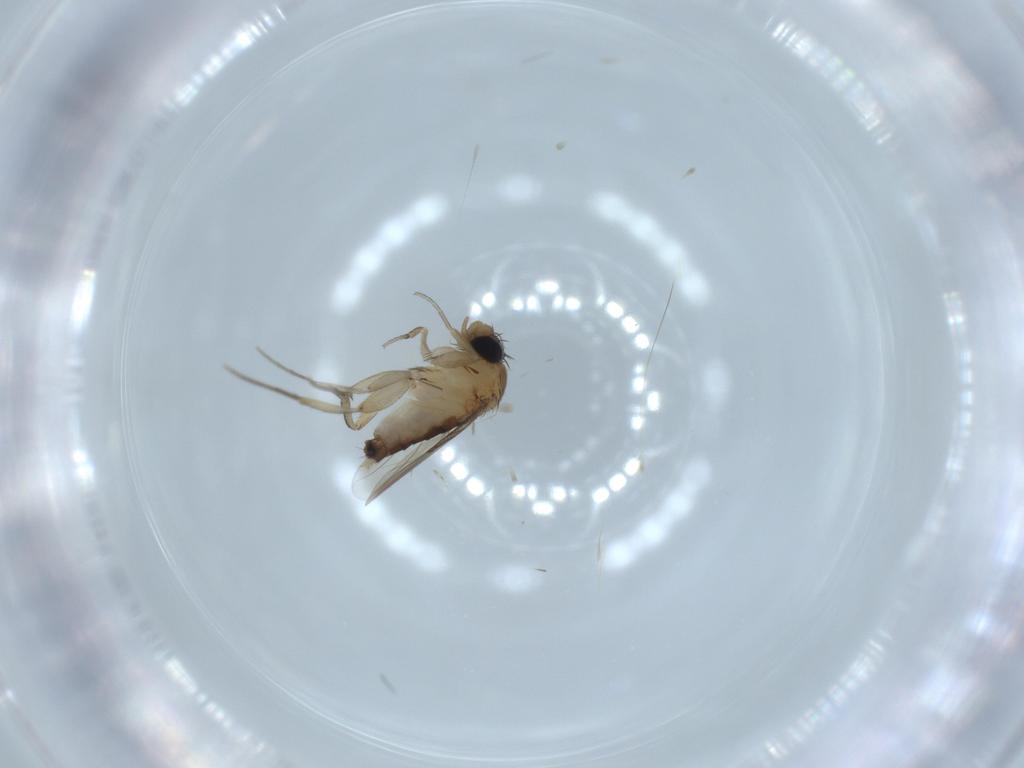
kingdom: Animalia
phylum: Arthropoda
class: Insecta
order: Diptera
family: Phoridae
